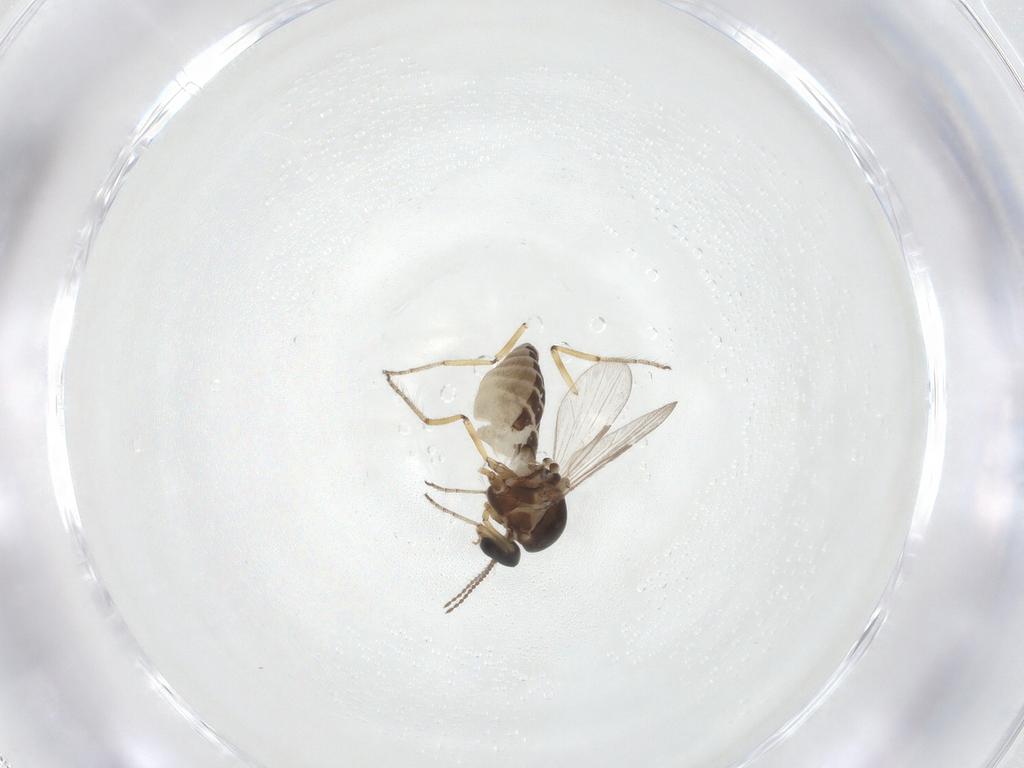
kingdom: Animalia
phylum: Arthropoda
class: Insecta
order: Diptera
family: Ceratopogonidae
